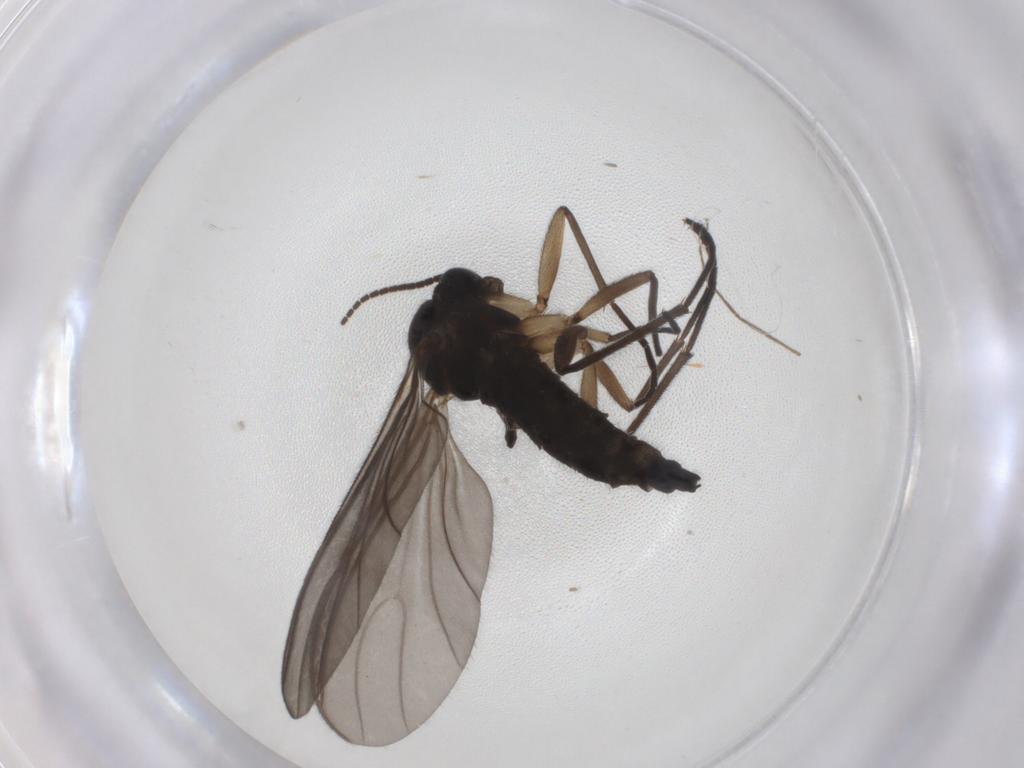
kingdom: Animalia
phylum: Arthropoda
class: Insecta
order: Diptera
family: Sciaridae
